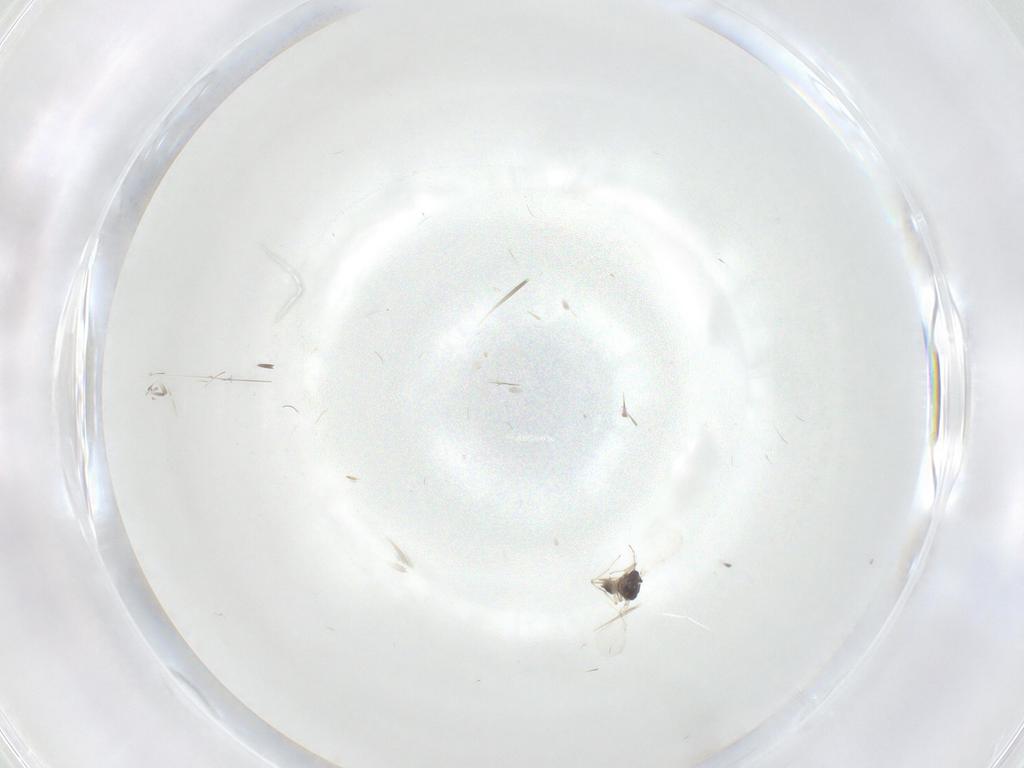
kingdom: Animalia
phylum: Arthropoda
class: Insecta
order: Diptera
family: Ceratopogonidae
